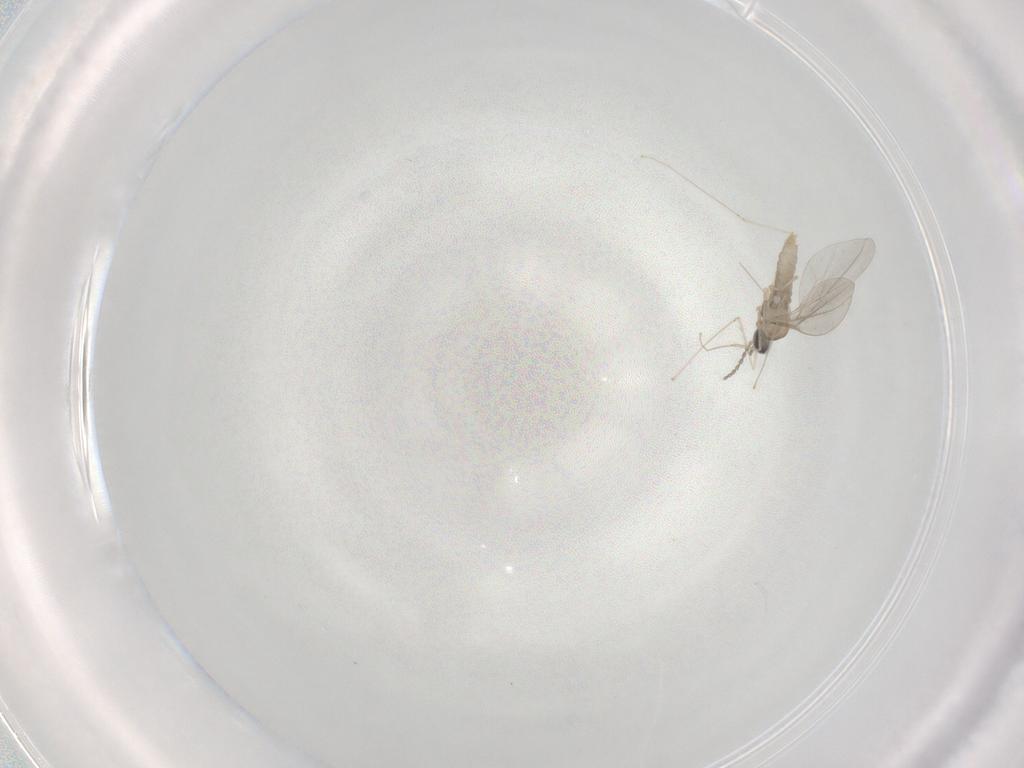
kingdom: Animalia
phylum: Arthropoda
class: Insecta
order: Diptera
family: Cecidomyiidae
